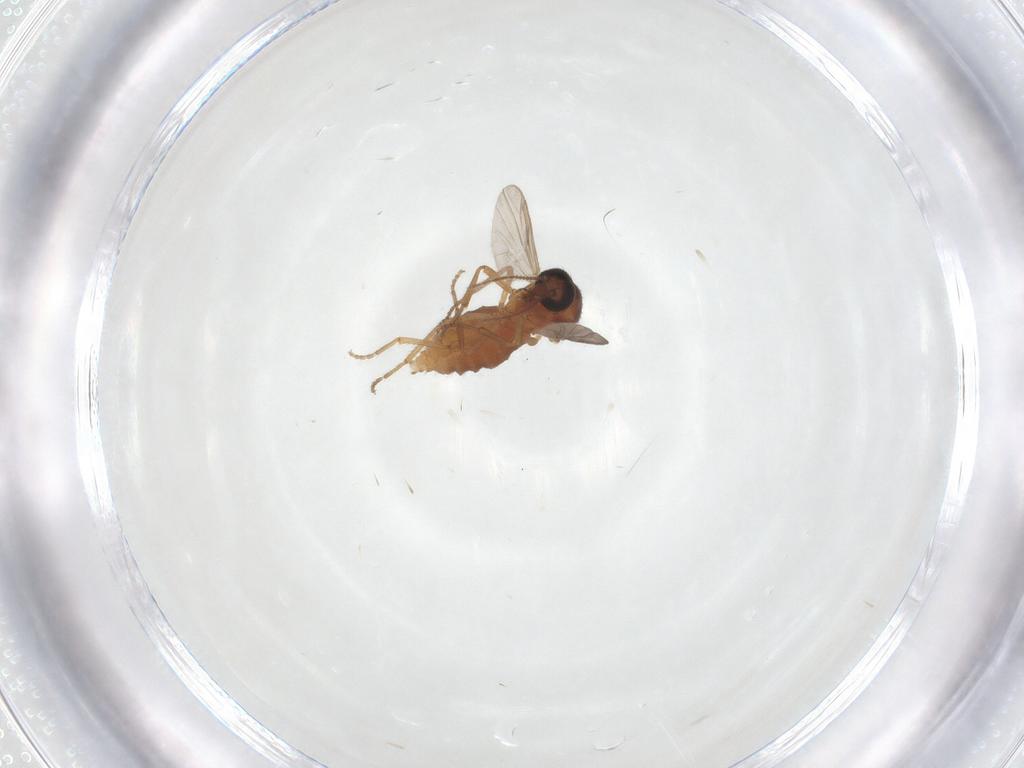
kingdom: Animalia
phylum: Arthropoda
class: Insecta
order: Diptera
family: Ceratopogonidae
